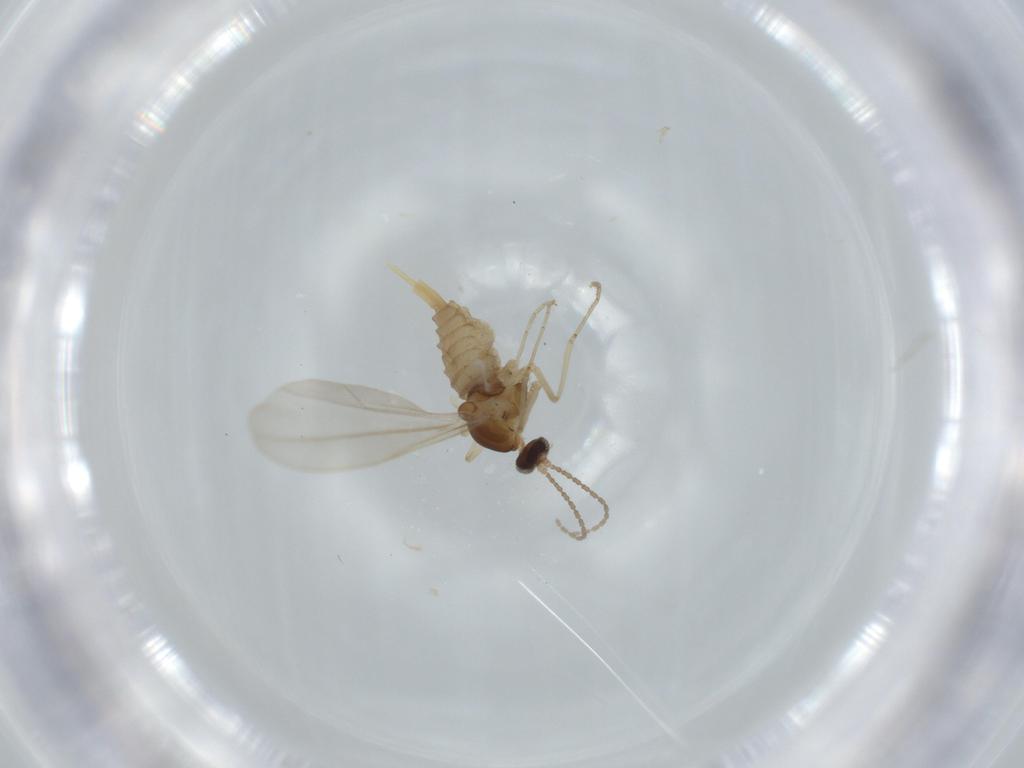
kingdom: Animalia
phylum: Arthropoda
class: Insecta
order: Diptera
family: Cecidomyiidae
